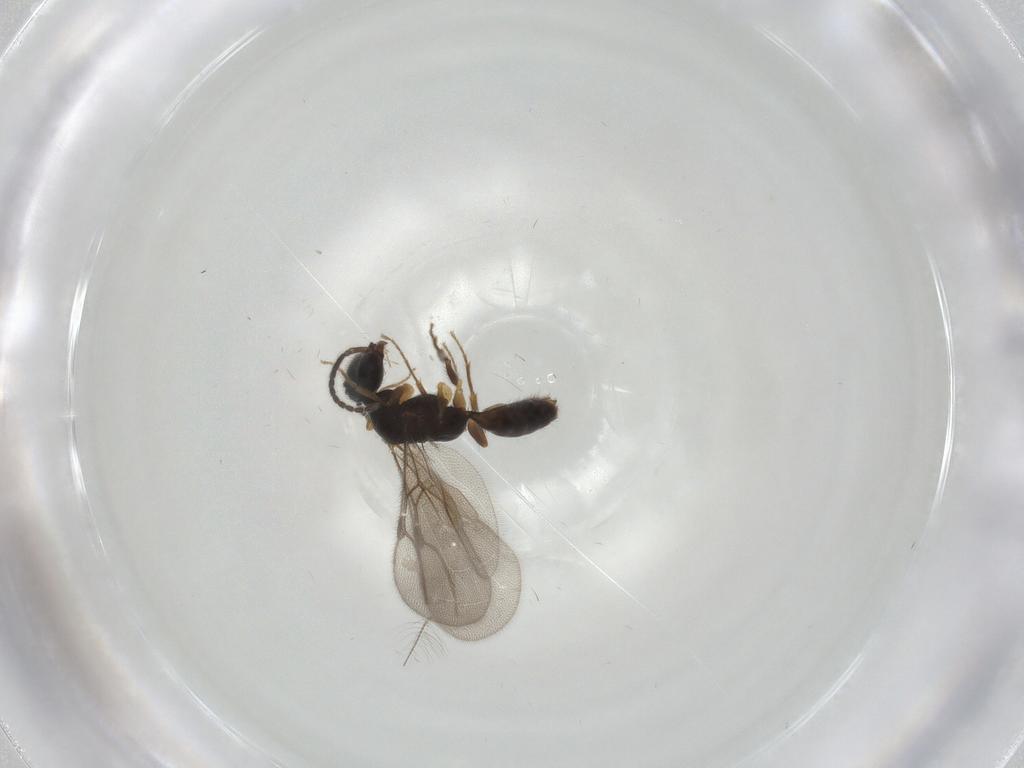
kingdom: Animalia
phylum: Arthropoda
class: Insecta
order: Hymenoptera
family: Bethylidae
